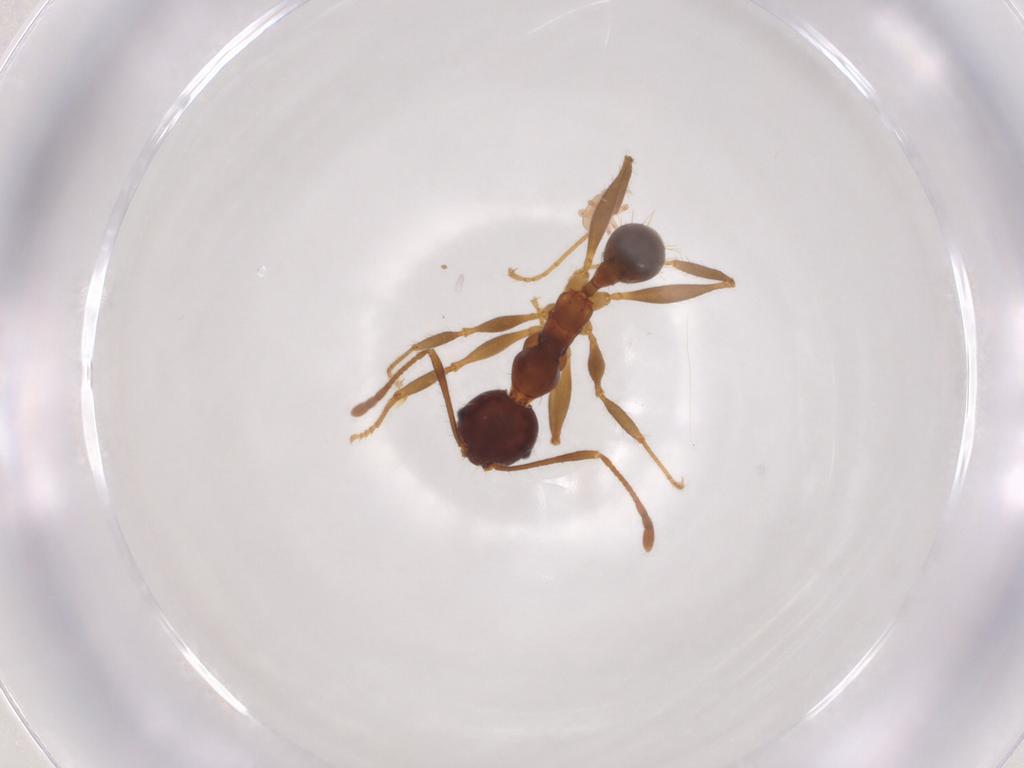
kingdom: Animalia
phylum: Arthropoda
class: Insecta
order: Hymenoptera
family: Formicidae
